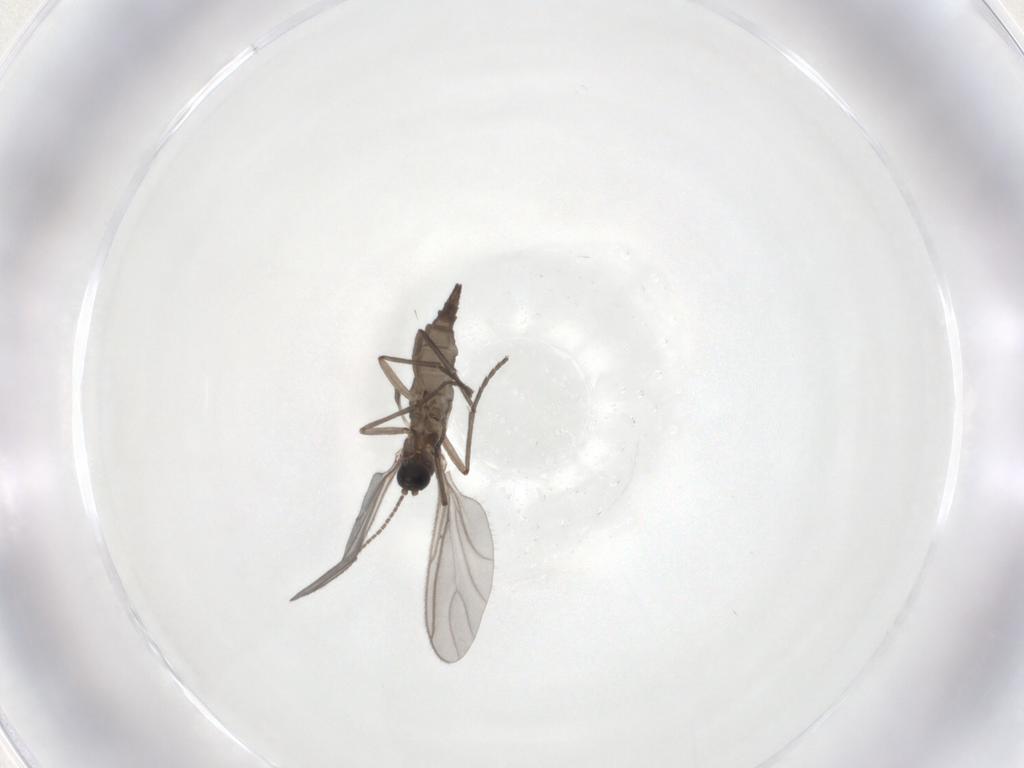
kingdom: Animalia
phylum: Arthropoda
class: Insecta
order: Diptera
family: Sciaridae
